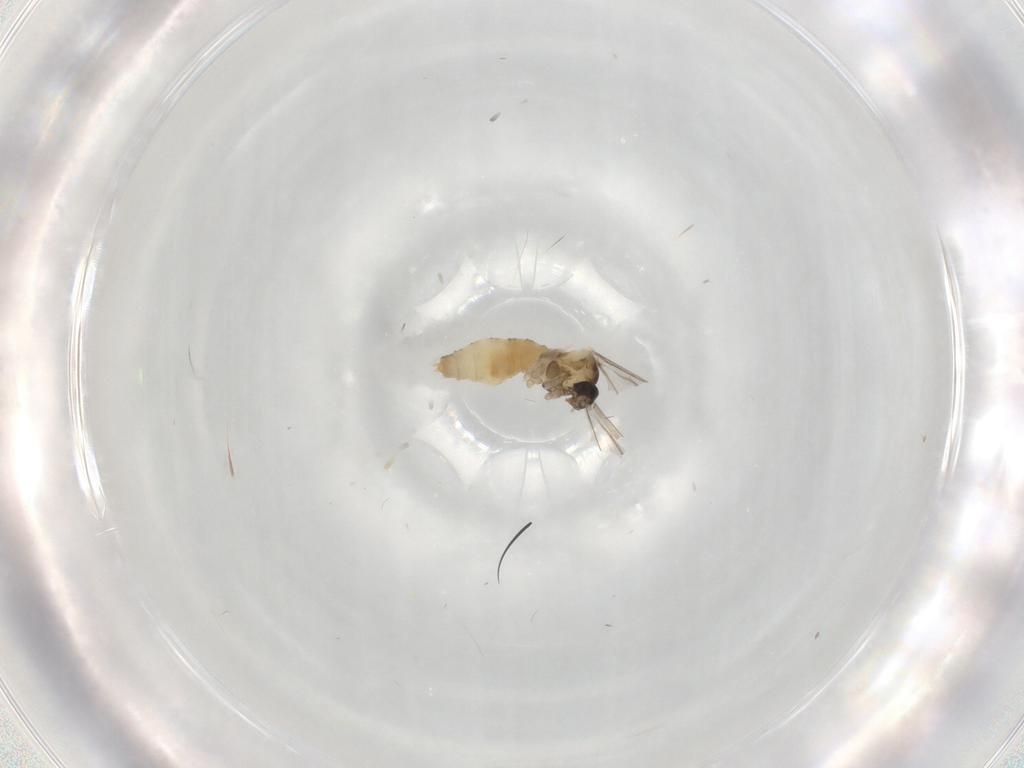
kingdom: Animalia
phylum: Arthropoda
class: Insecta
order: Diptera
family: Cecidomyiidae
